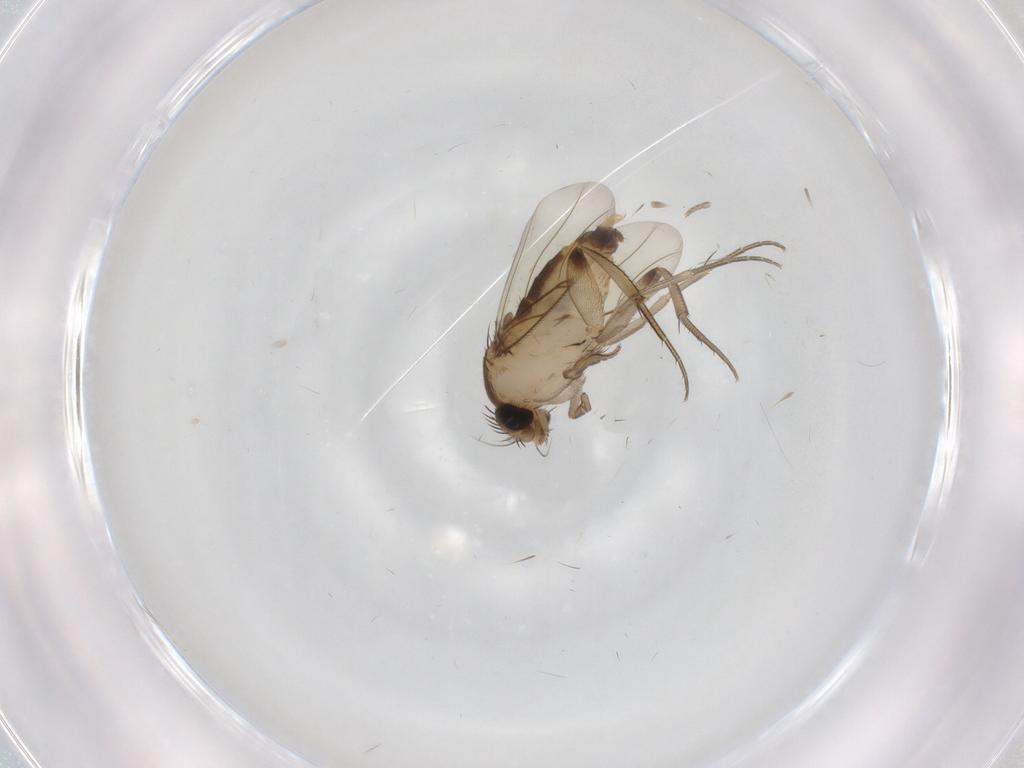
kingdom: Animalia
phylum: Arthropoda
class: Insecta
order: Diptera
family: Phoridae
